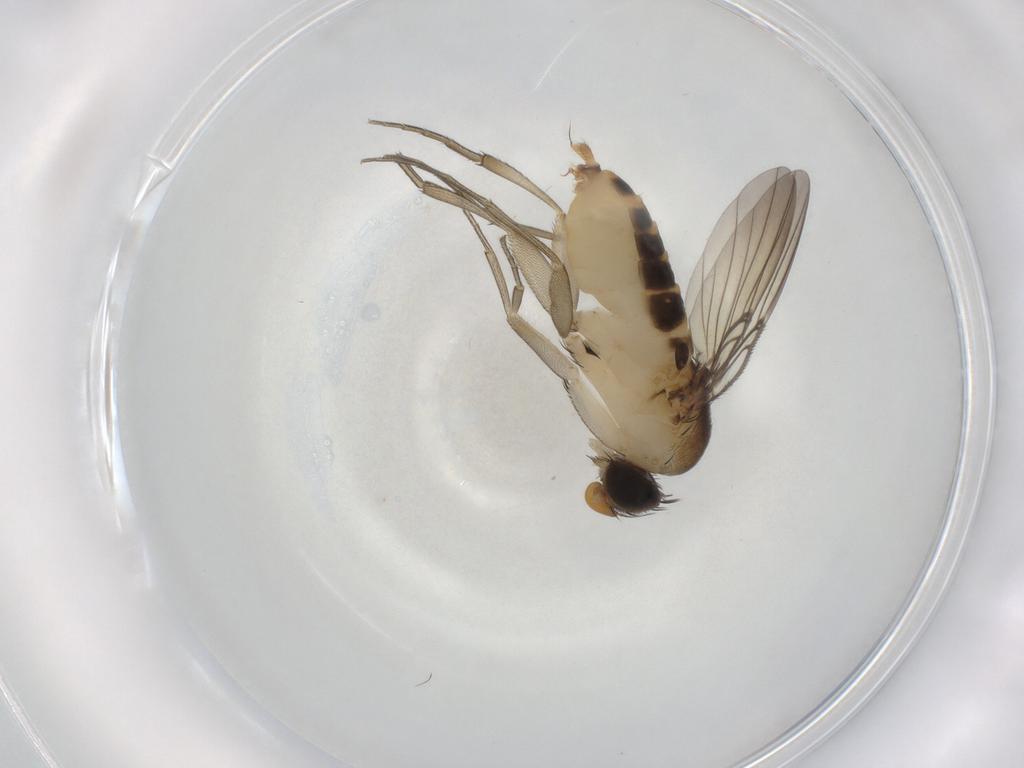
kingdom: Animalia
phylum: Arthropoda
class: Insecta
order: Diptera
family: Phoridae
